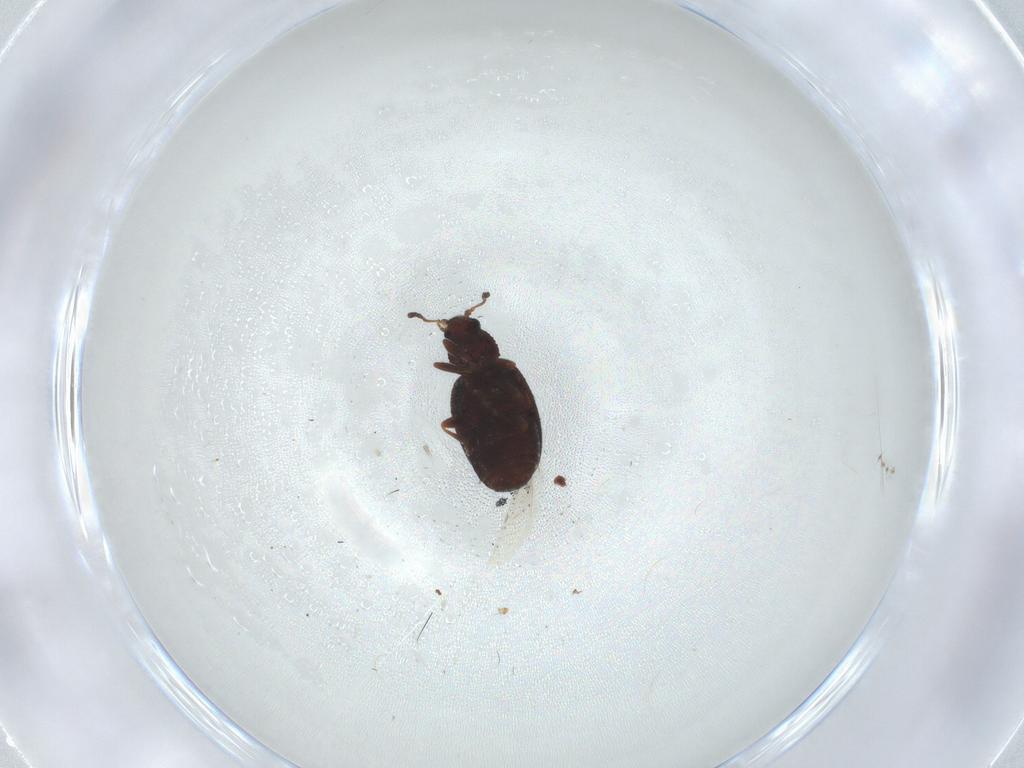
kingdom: Animalia
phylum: Arthropoda
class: Insecta
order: Coleoptera
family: Latridiidae
